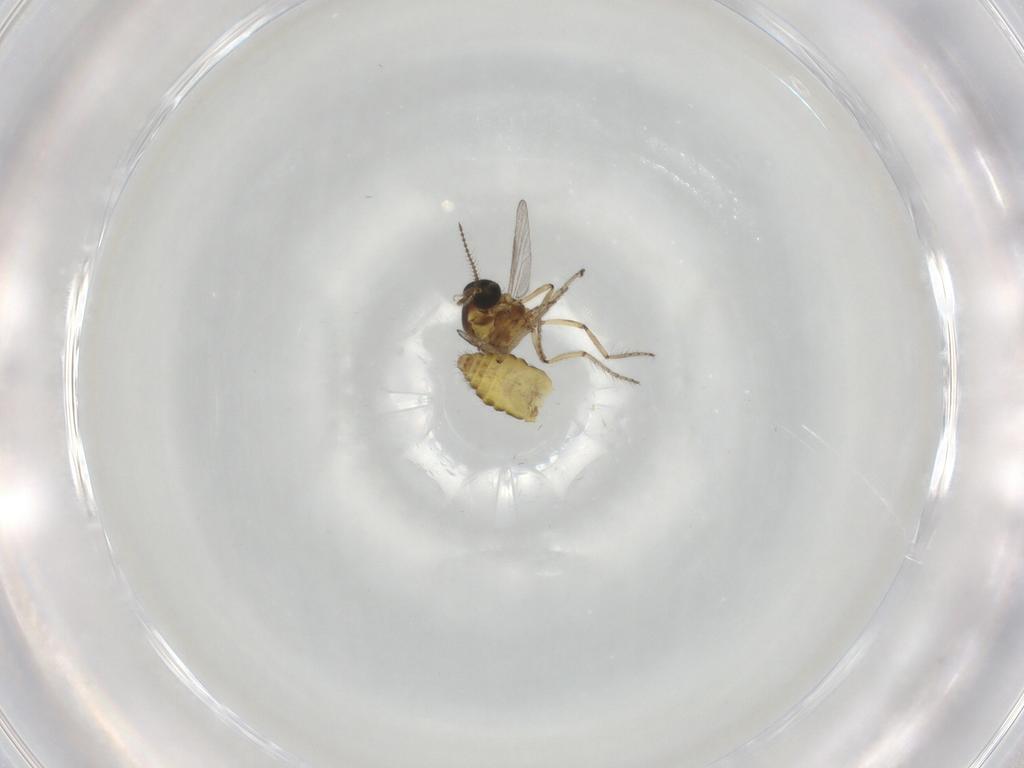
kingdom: Animalia
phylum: Arthropoda
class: Insecta
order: Diptera
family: Ceratopogonidae
